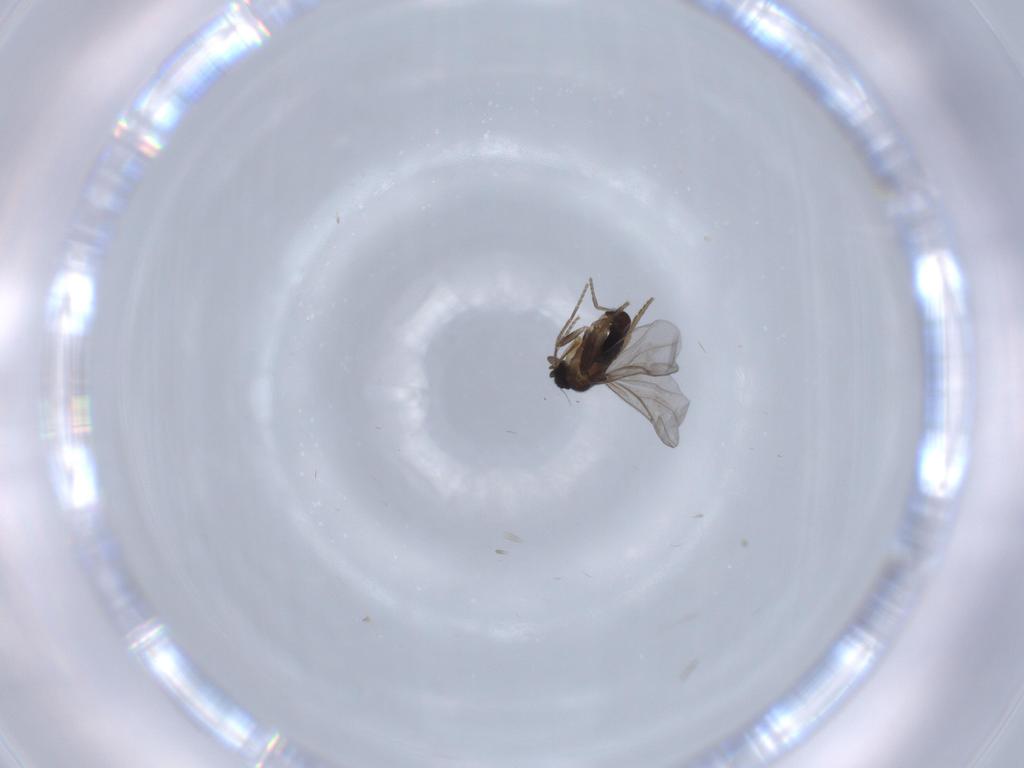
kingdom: Animalia
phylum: Arthropoda
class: Insecta
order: Diptera
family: Phoridae
